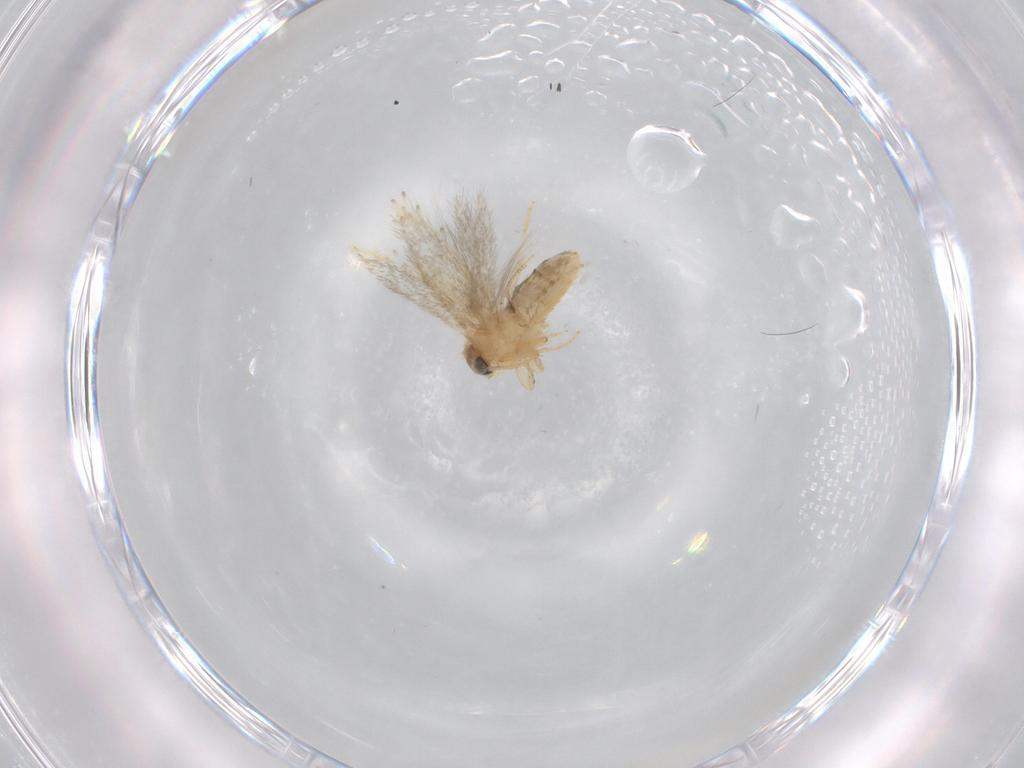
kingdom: Animalia
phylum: Arthropoda
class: Insecta
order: Lepidoptera
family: Nepticulidae
